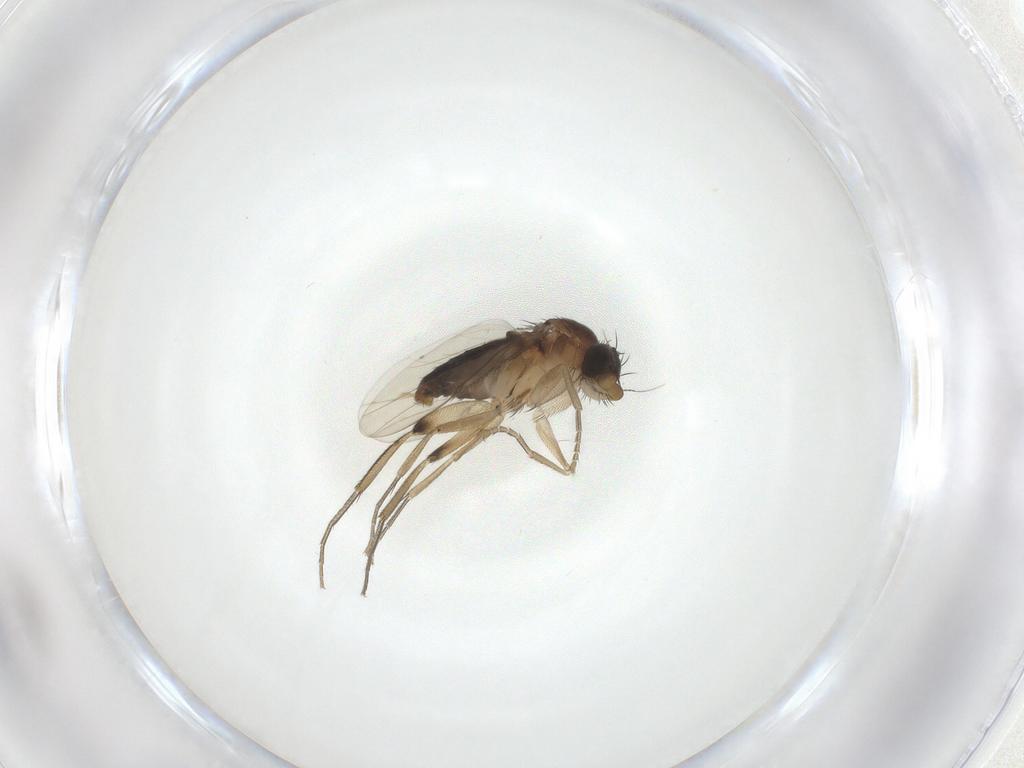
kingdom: Animalia
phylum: Arthropoda
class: Insecta
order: Diptera
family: Phoridae
